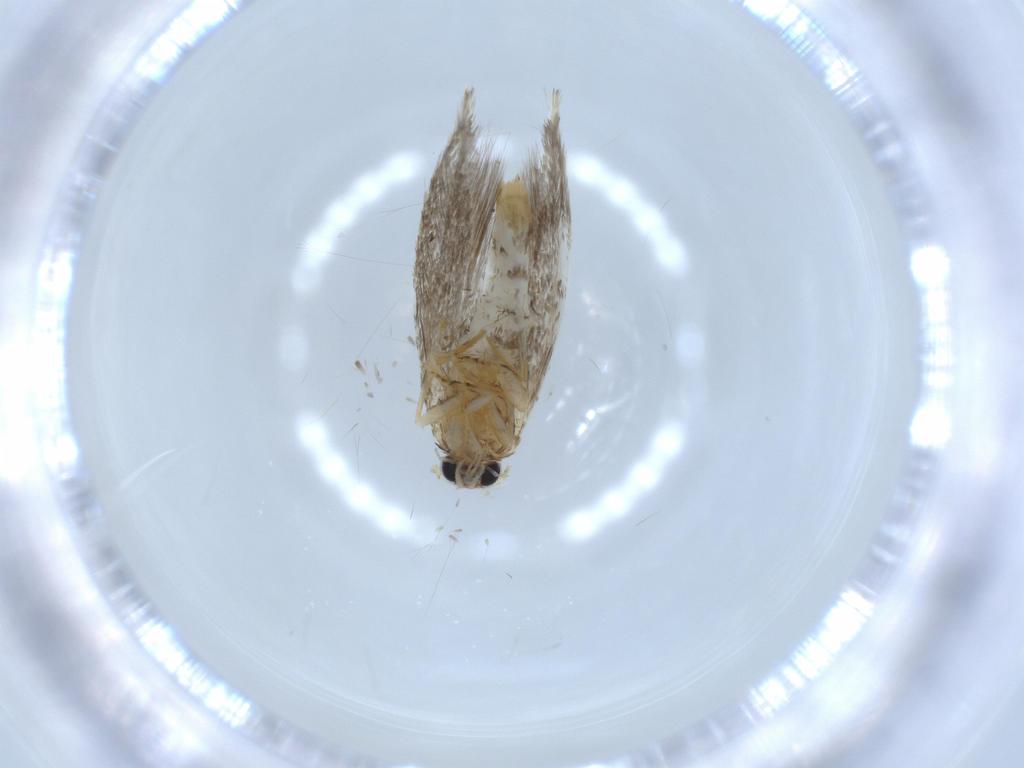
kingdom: Animalia
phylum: Arthropoda
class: Insecta
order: Lepidoptera
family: Tineidae
